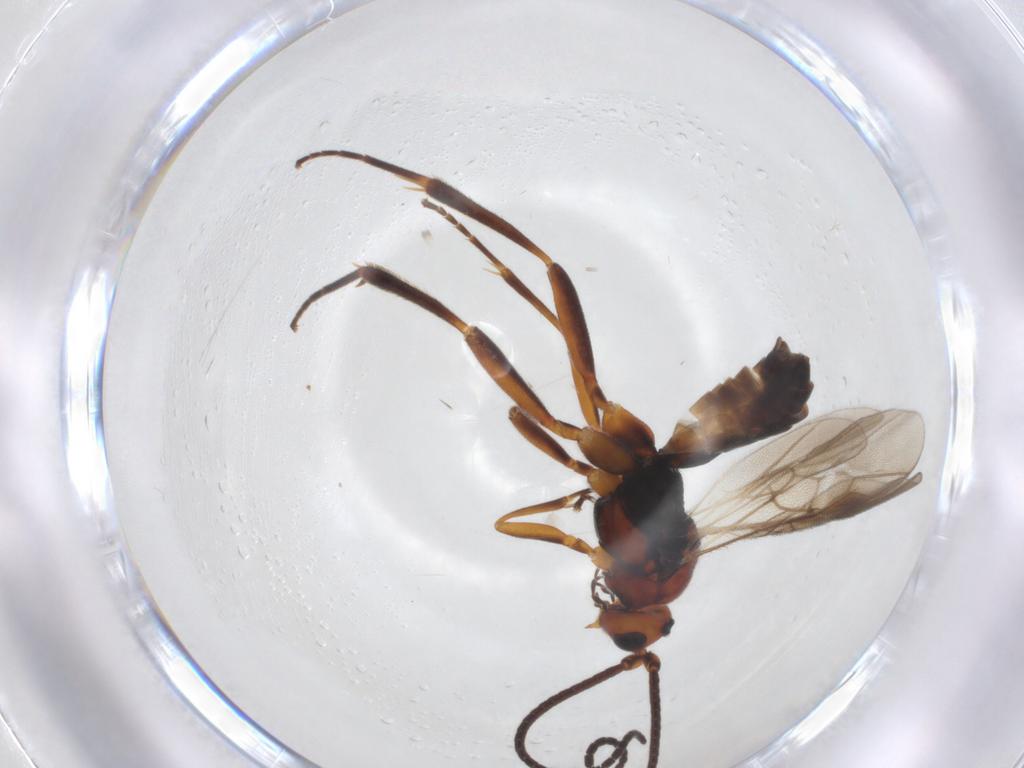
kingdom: Animalia
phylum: Arthropoda
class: Insecta
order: Hymenoptera
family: Braconidae
